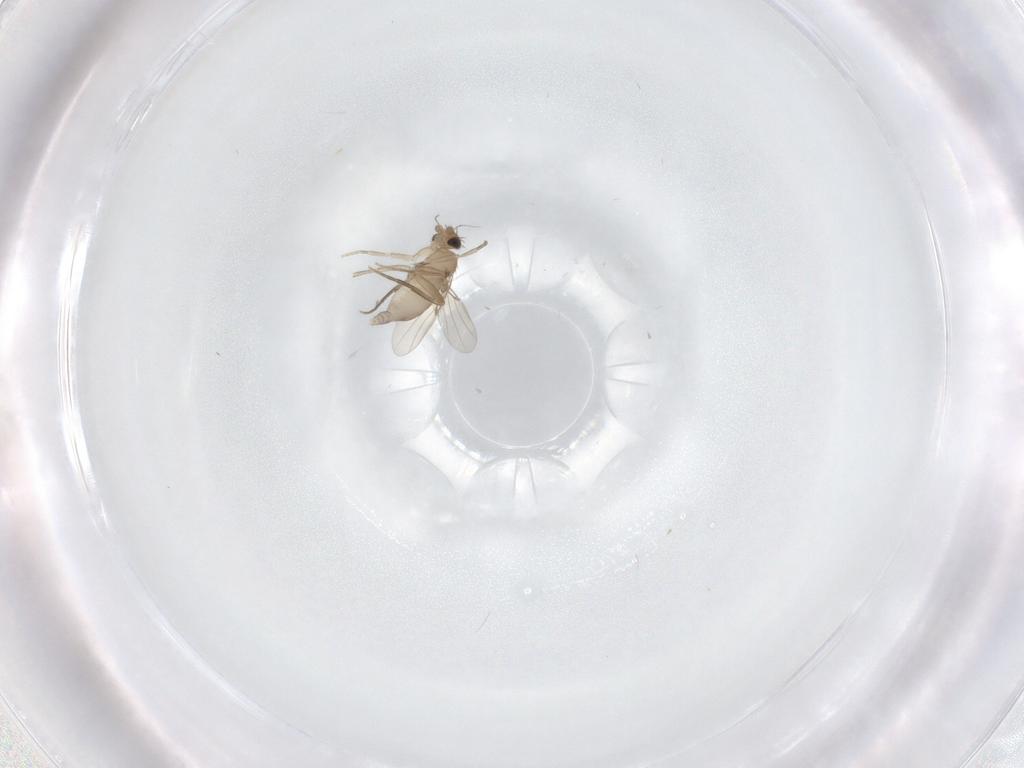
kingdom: Animalia
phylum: Arthropoda
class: Insecta
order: Diptera
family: Phoridae
